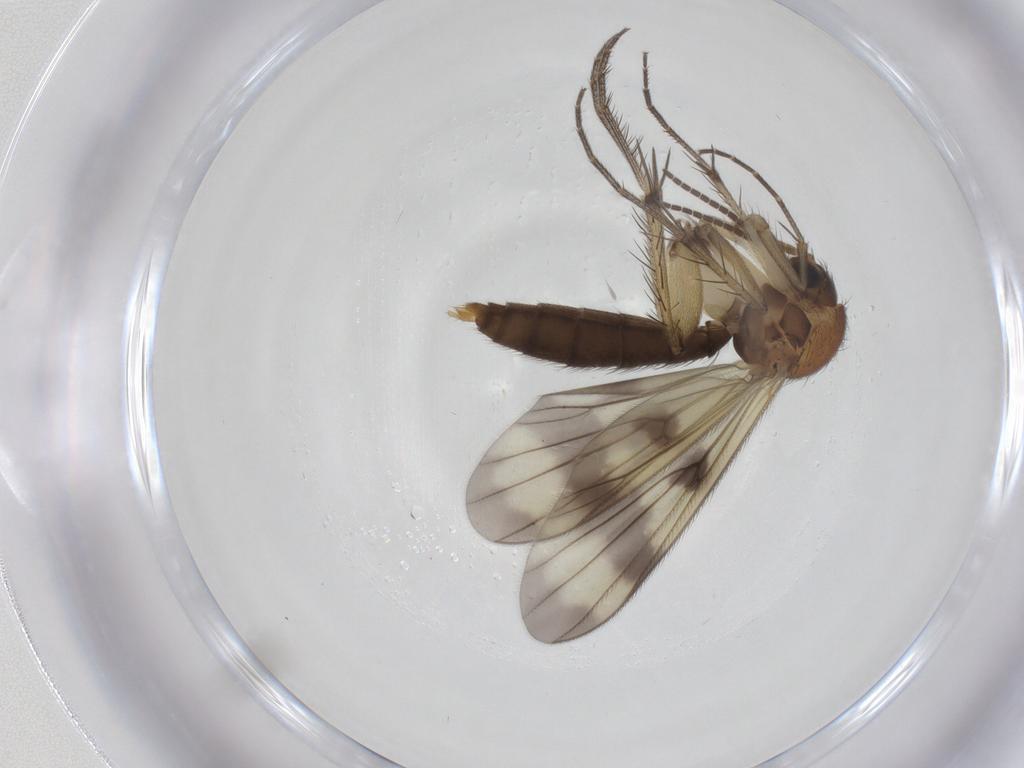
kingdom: Animalia
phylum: Arthropoda
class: Insecta
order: Diptera
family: Mycetophilidae
